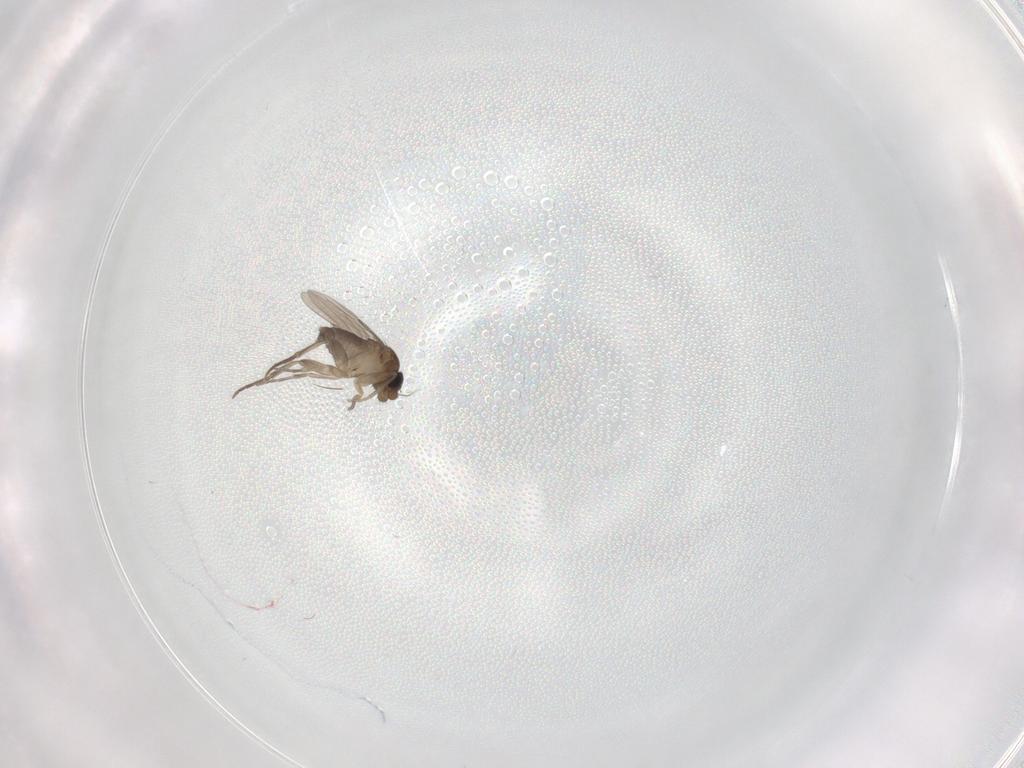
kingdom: Animalia
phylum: Arthropoda
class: Insecta
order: Diptera
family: Phoridae
